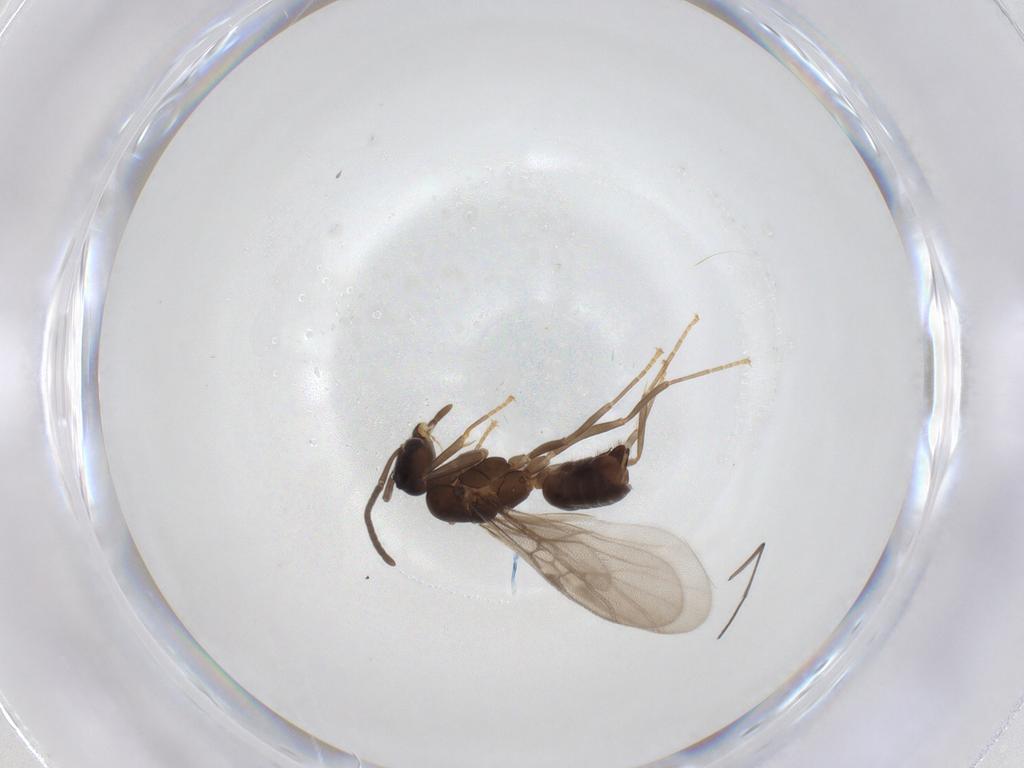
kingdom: Animalia
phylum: Arthropoda
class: Insecta
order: Hymenoptera
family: Formicidae
